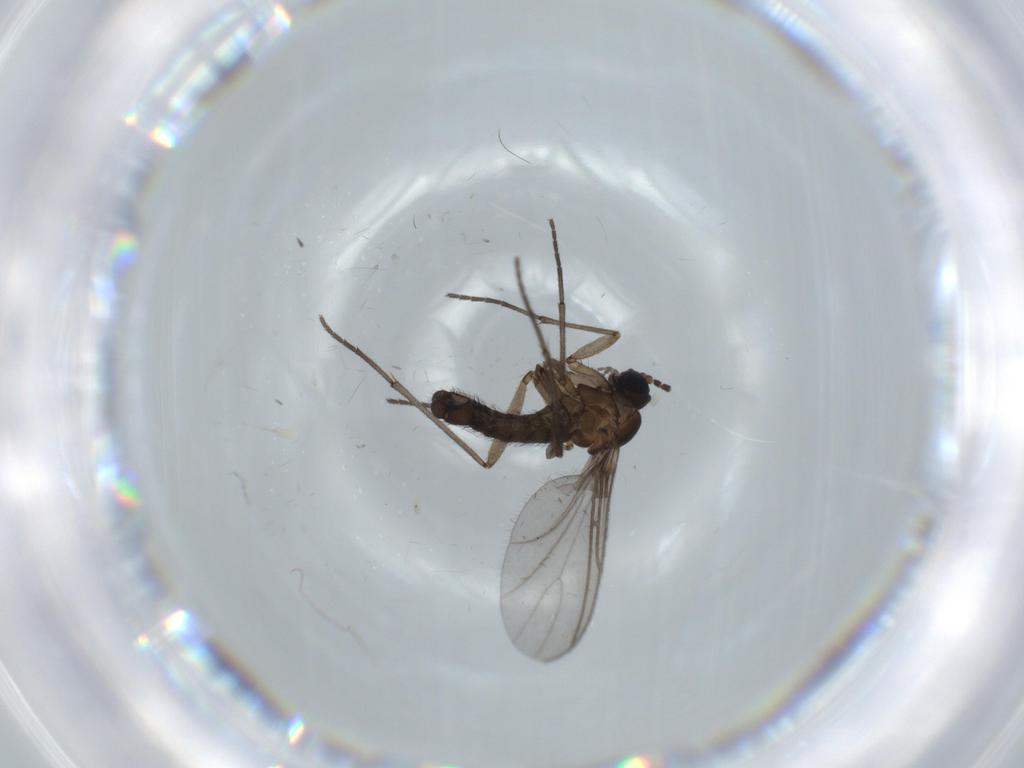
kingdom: Animalia
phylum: Arthropoda
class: Insecta
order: Diptera
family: Sciaridae
